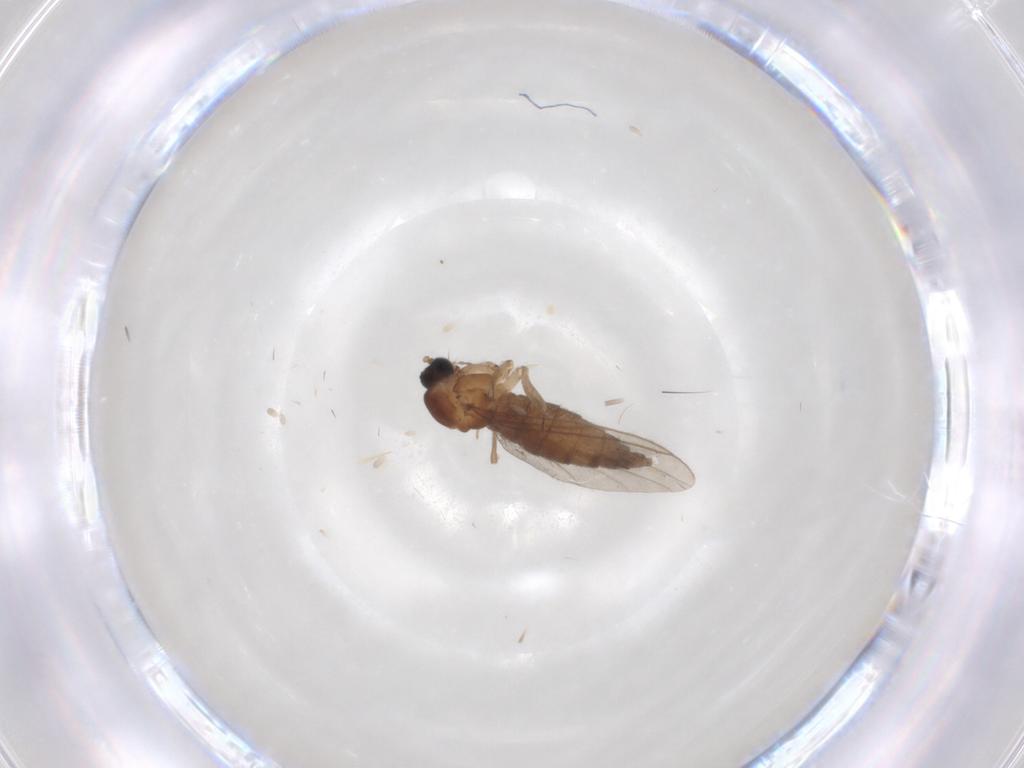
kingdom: Animalia
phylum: Arthropoda
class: Insecta
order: Diptera
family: Sciaridae
